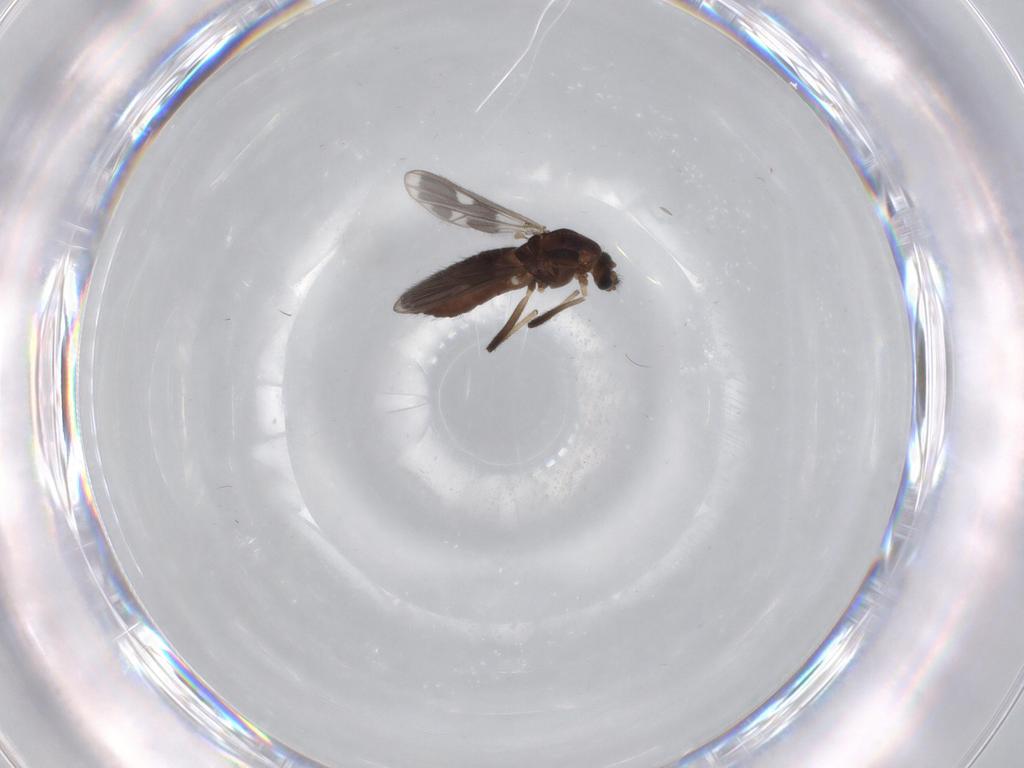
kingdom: Animalia
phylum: Arthropoda
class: Insecta
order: Diptera
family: Chironomidae
